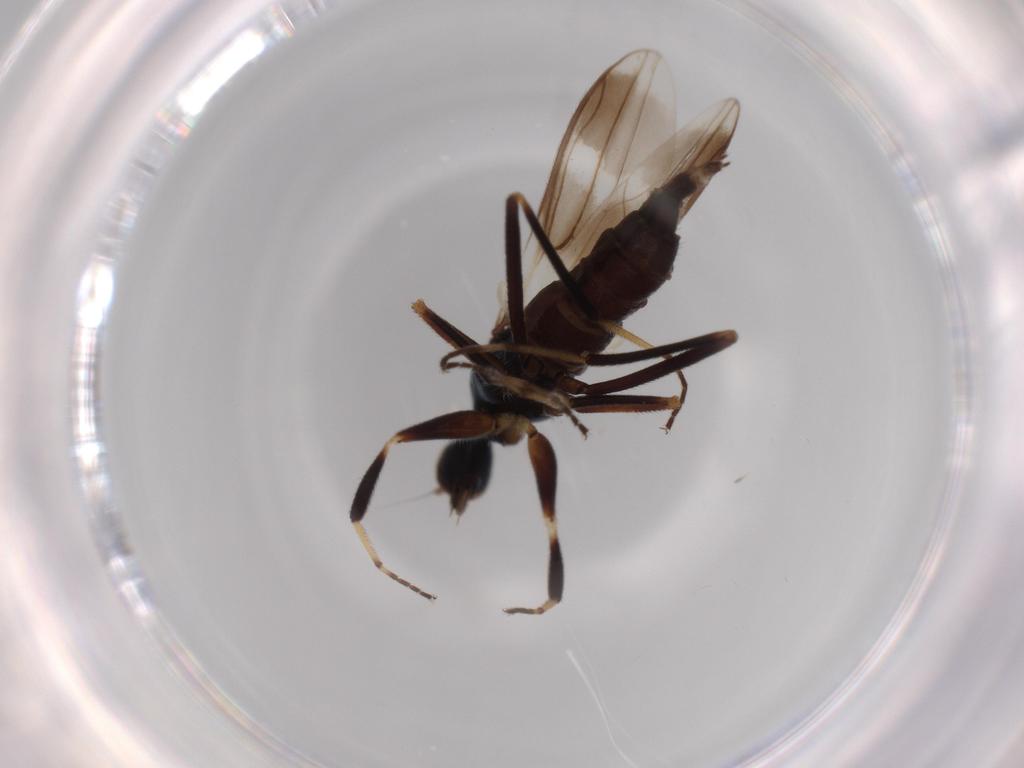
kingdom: Animalia
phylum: Arthropoda
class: Insecta
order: Diptera
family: Hybotidae
